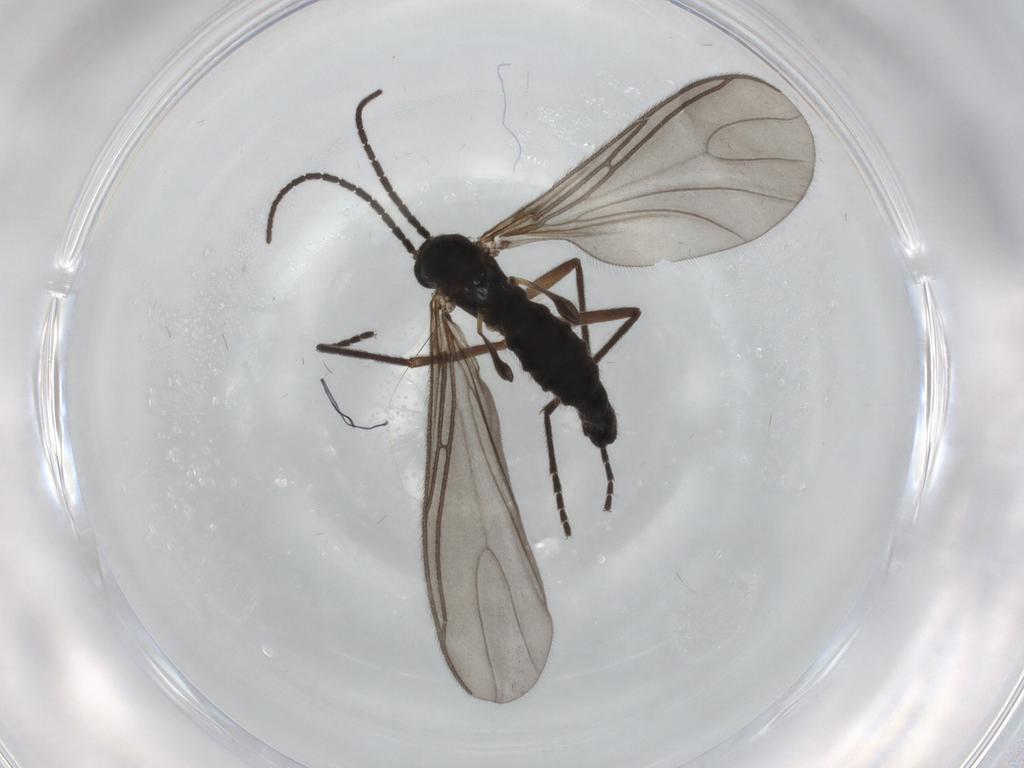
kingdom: Animalia
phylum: Arthropoda
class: Insecta
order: Diptera
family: Sciaridae
